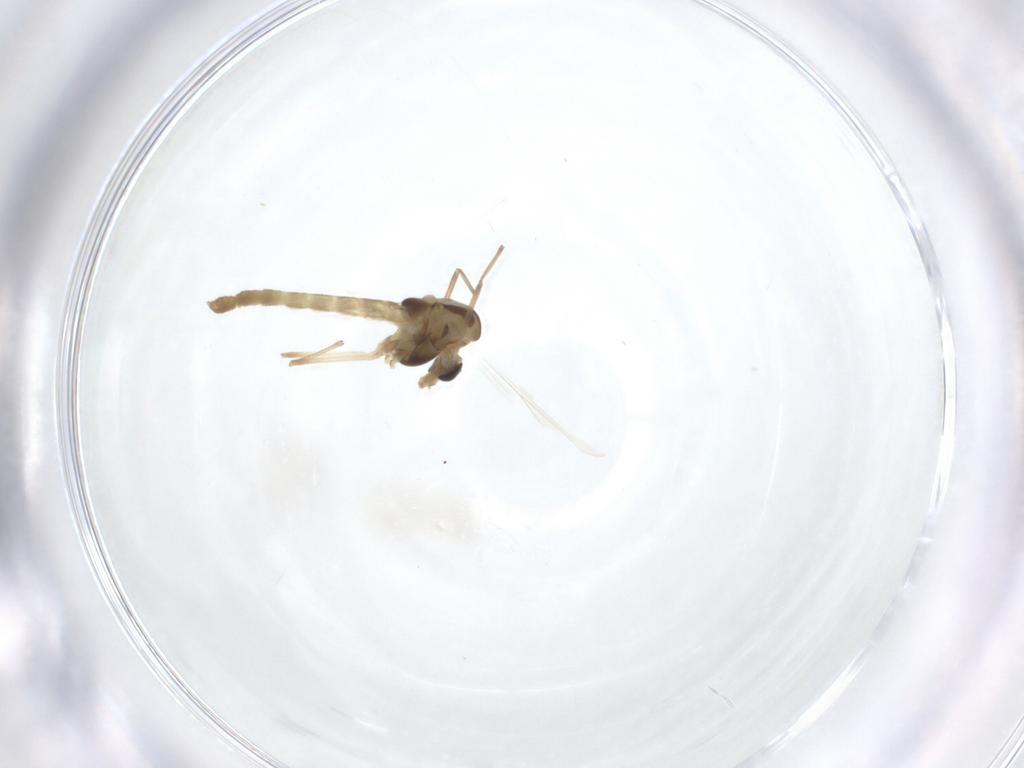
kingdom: Animalia
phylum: Arthropoda
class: Insecta
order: Diptera
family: Chironomidae
